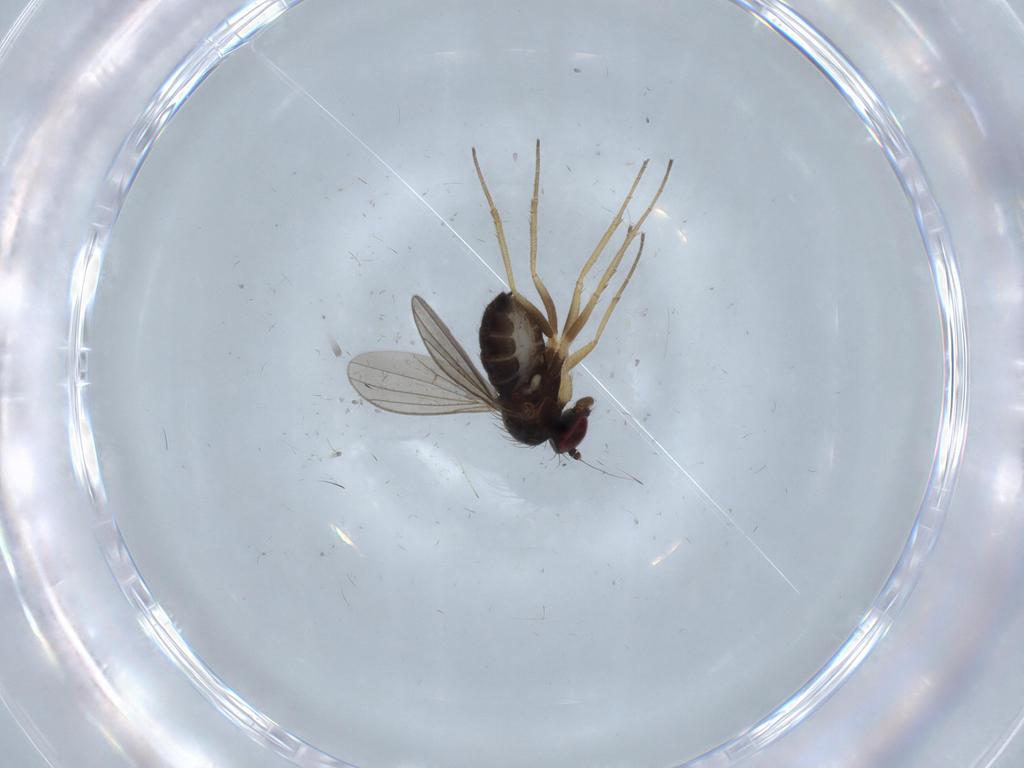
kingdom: Animalia
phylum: Arthropoda
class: Insecta
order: Diptera
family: Dolichopodidae
